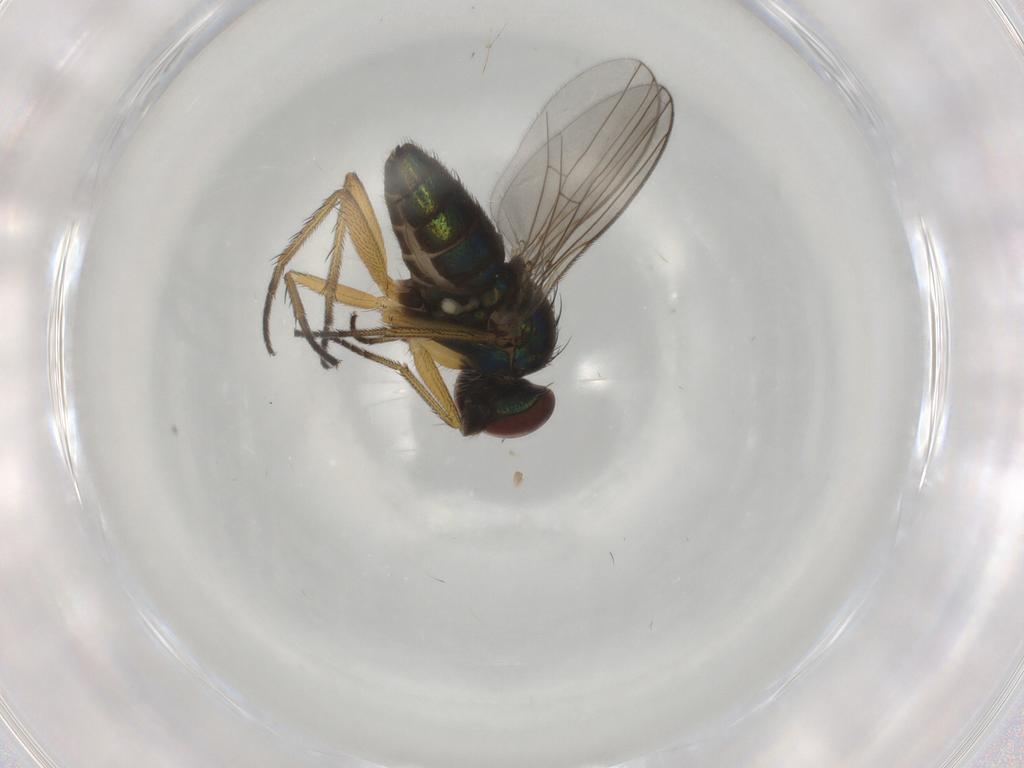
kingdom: Animalia
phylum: Arthropoda
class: Insecta
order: Diptera
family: Dolichopodidae
